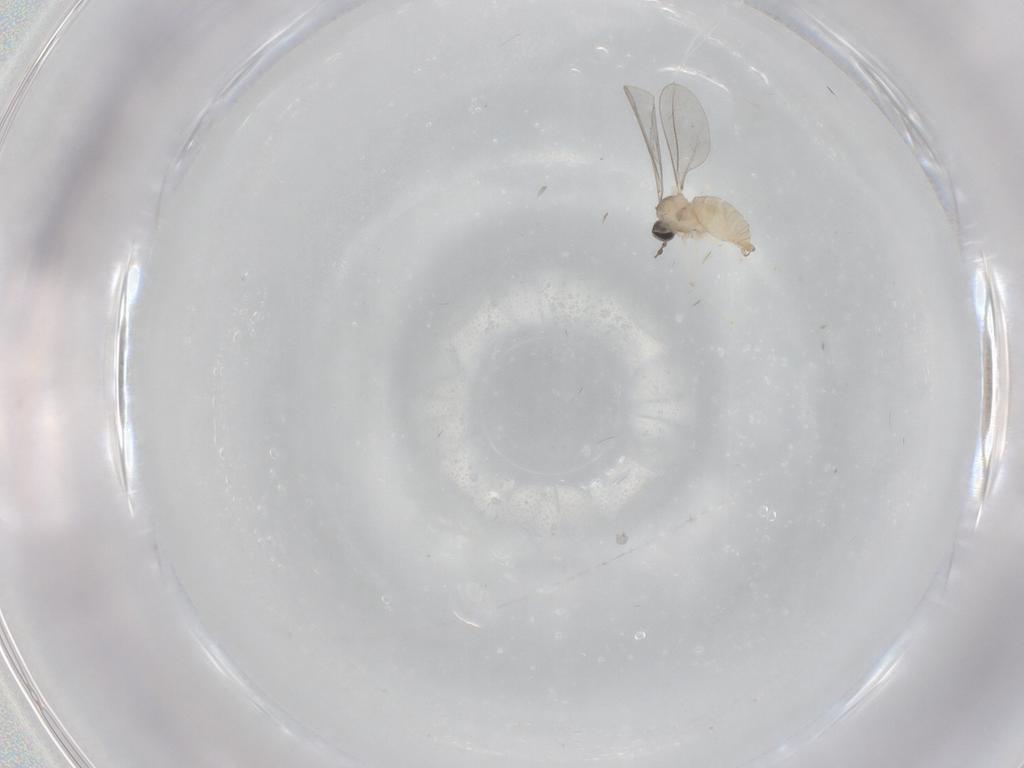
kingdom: Animalia
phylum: Arthropoda
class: Insecta
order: Diptera
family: Cecidomyiidae
